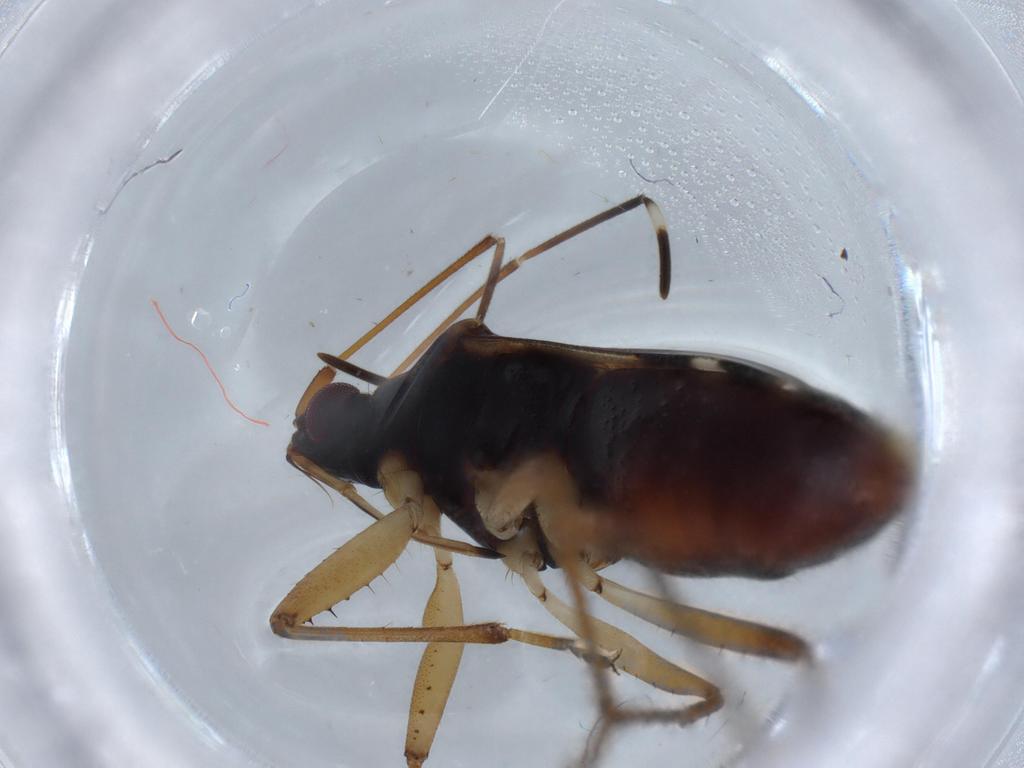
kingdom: Animalia
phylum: Arthropoda
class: Insecta
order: Hemiptera
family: Rhyparochromidae
